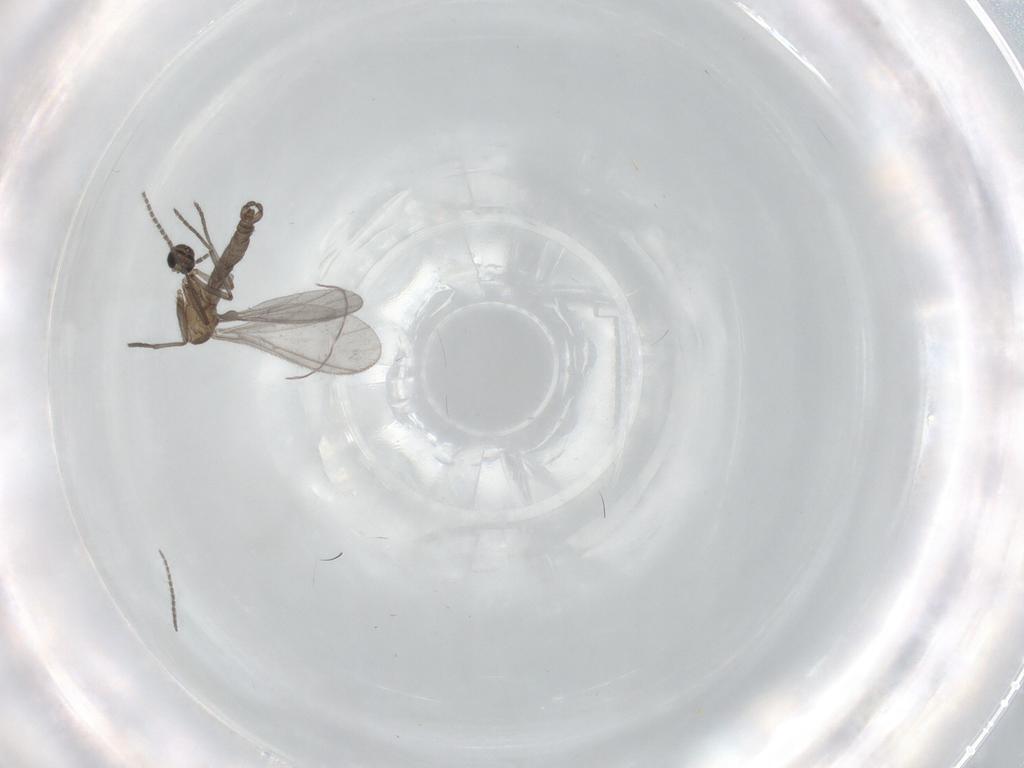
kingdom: Animalia
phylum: Arthropoda
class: Insecta
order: Diptera
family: Sciaridae
